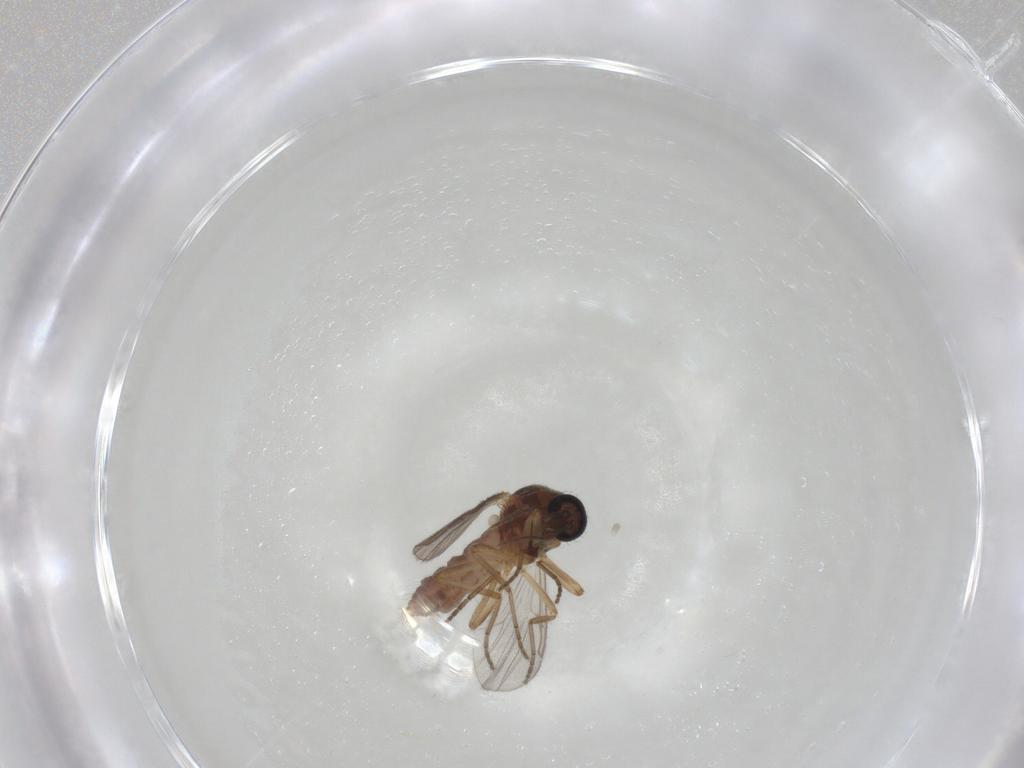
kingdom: Animalia
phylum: Arthropoda
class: Insecta
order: Diptera
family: Ceratopogonidae
